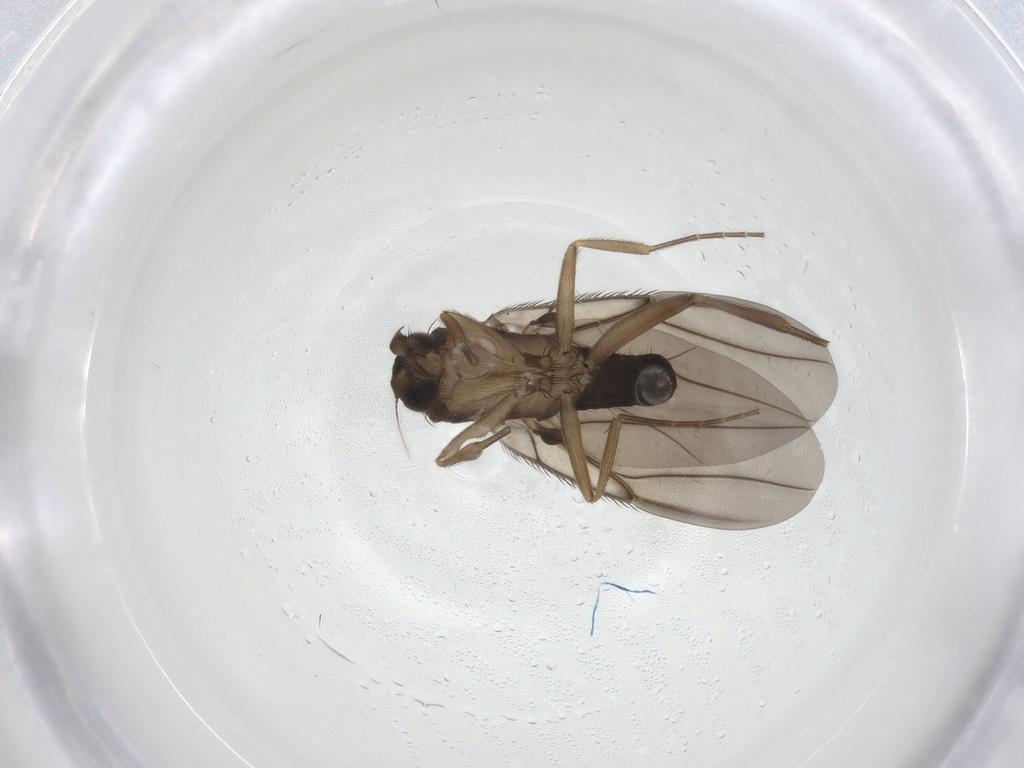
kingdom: Animalia
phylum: Arthropoda
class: Insecta
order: Diptera
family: Phoridae
